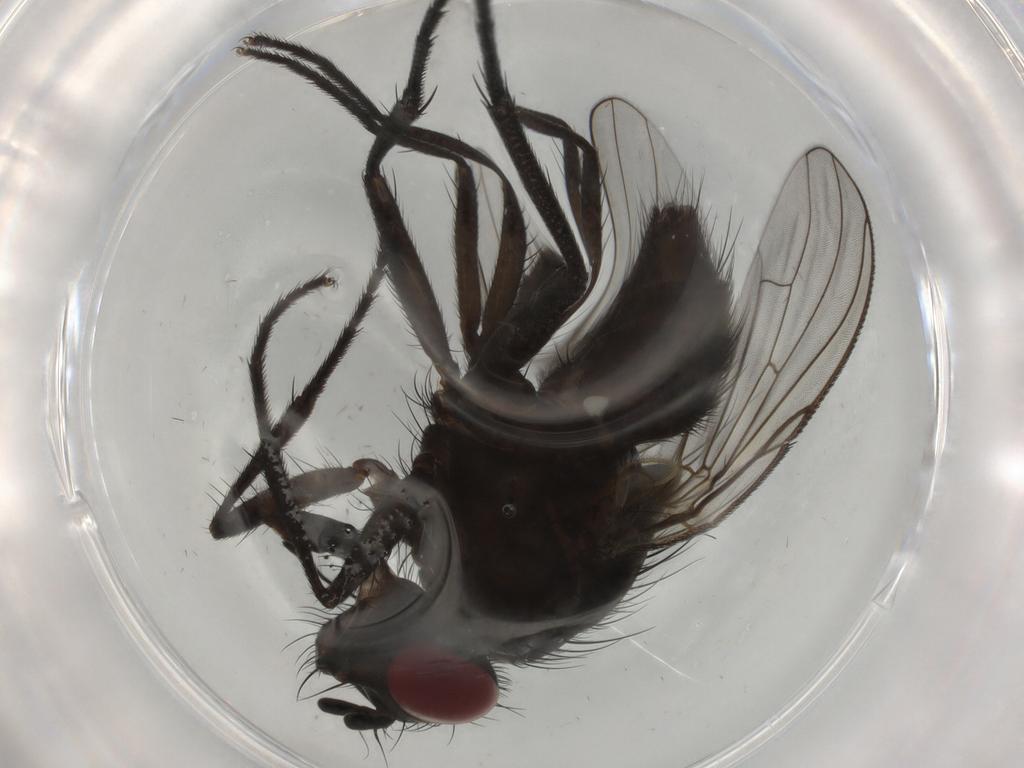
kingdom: Animalia
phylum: Arthropoda
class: Insecta
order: Diptera
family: Muscidae
